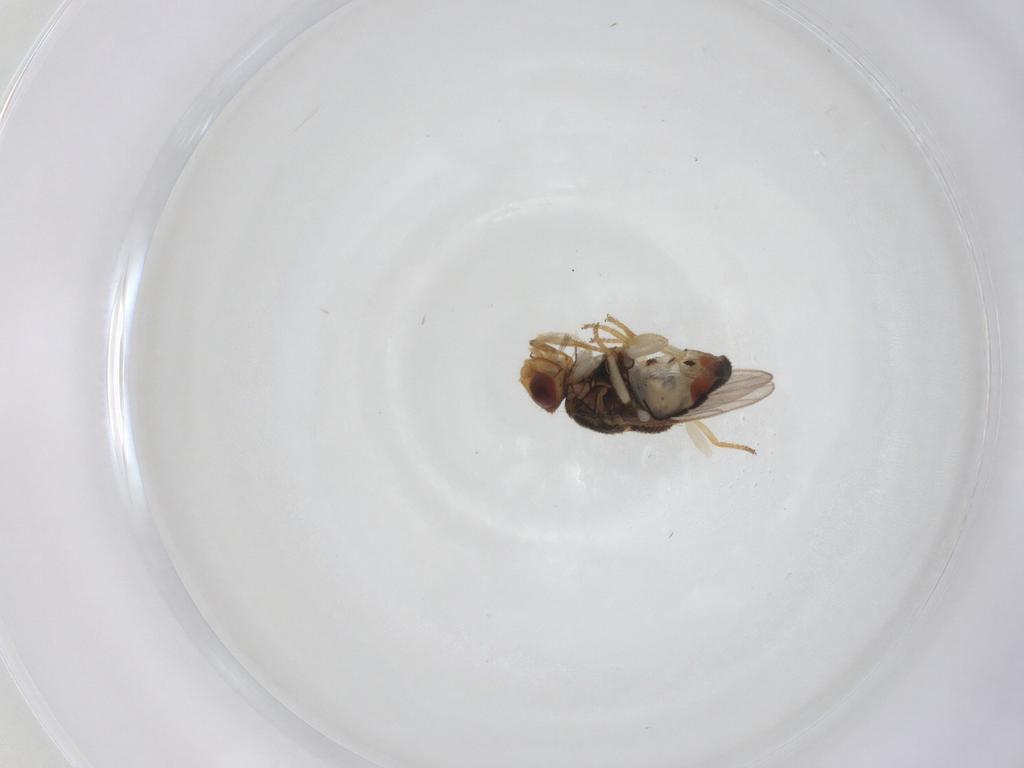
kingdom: Animalia
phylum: Arthropoda
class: Insecta
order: Diptera
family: Chloropidae
